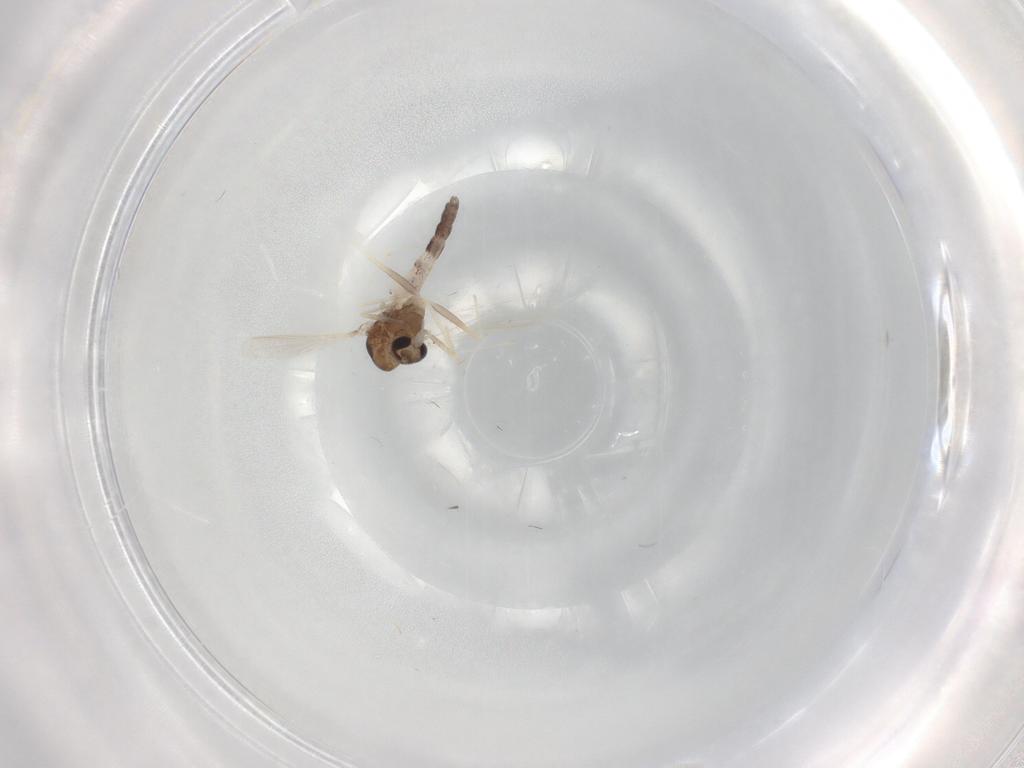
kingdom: Animalia
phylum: Arthropoda
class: Insecta
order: Diptera
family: Chironomidae
